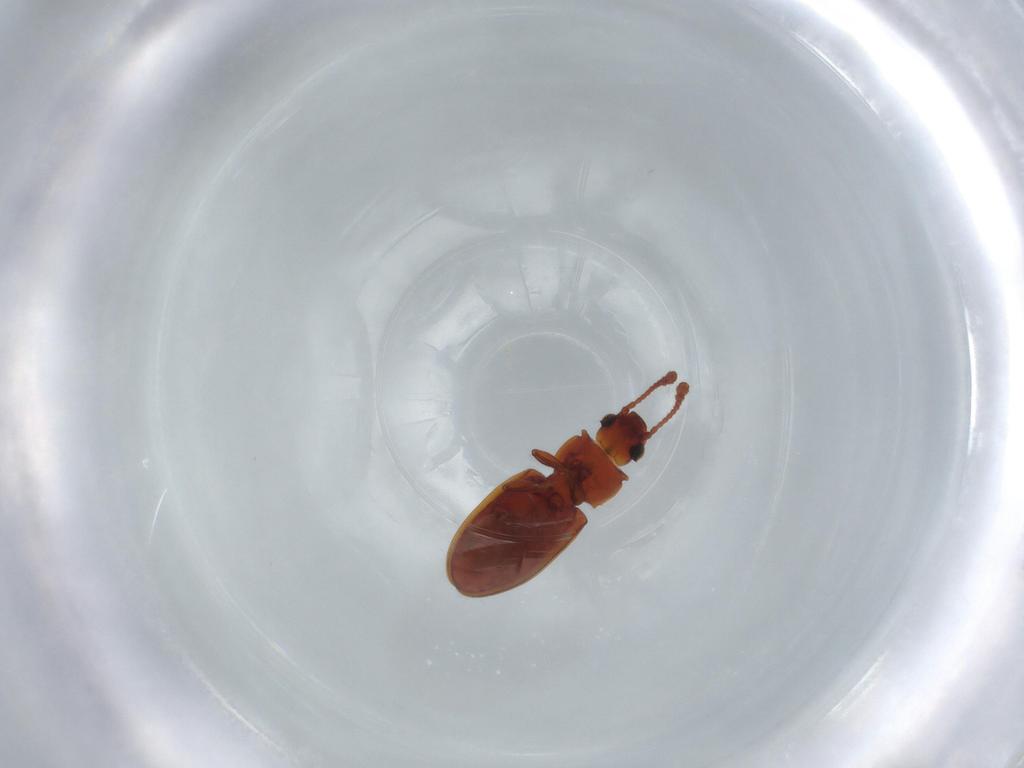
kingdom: Animalia
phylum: Arthropoda
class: Insecta
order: Coleoptera
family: Silvanidae
